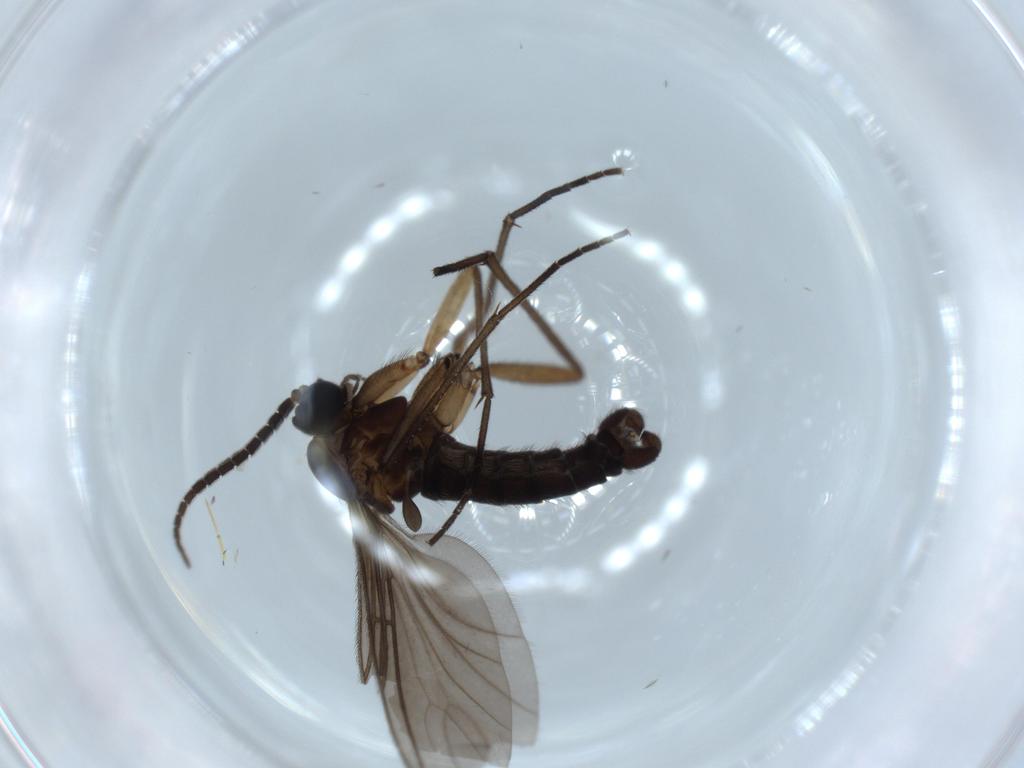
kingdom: Animalia
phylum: Arthropoda
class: Insecta
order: Diptera
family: Sciaridae
